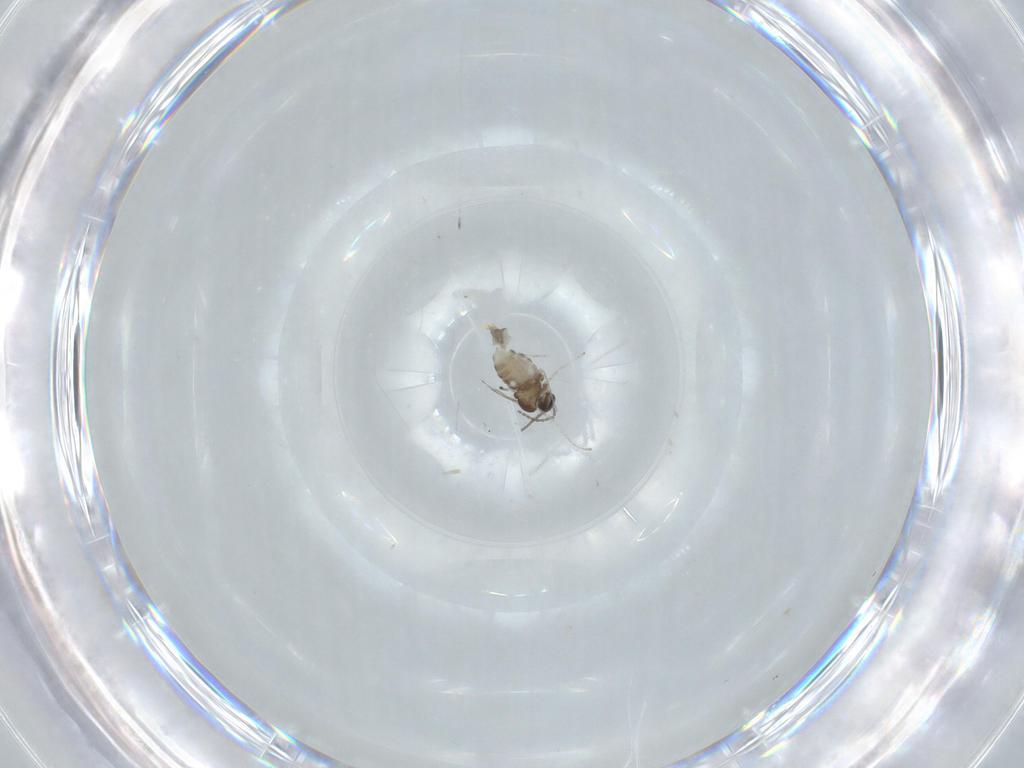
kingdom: Animalia
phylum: Arthropoda
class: Insecta
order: Diptera
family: Cecidomyiidae
